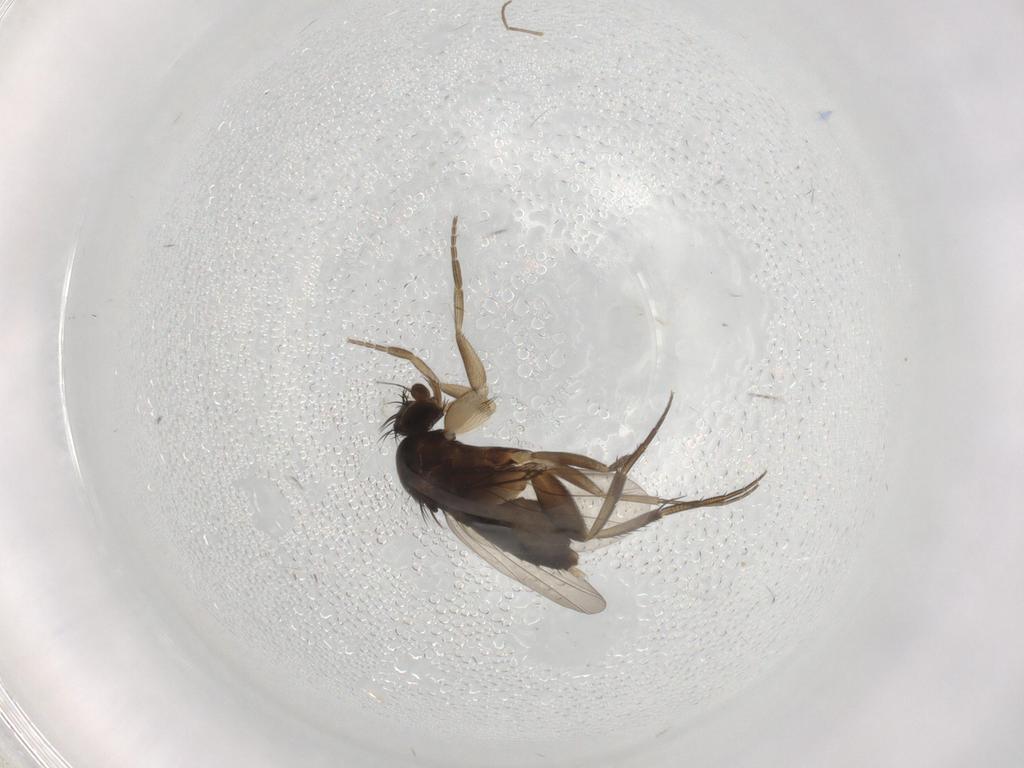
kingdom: Animalia
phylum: Arthropoda
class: Insecta
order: Diptera
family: Phoridae
